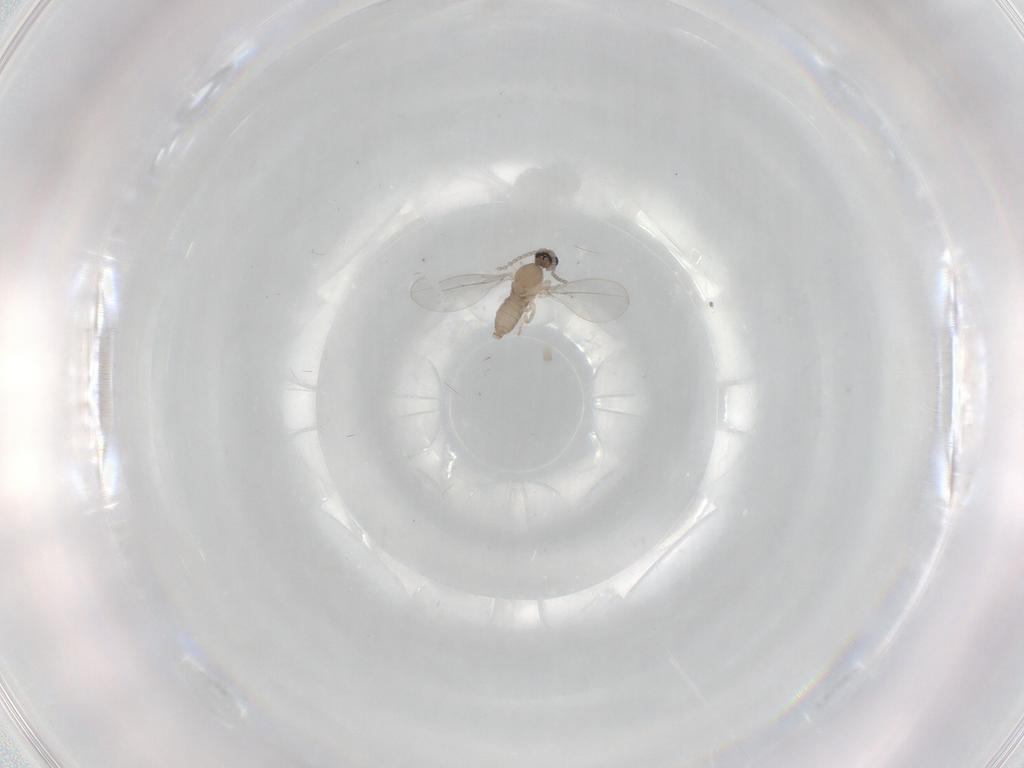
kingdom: Animalia
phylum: Arthropoda
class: Insecta
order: Diptera
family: Cecidomyiidae
